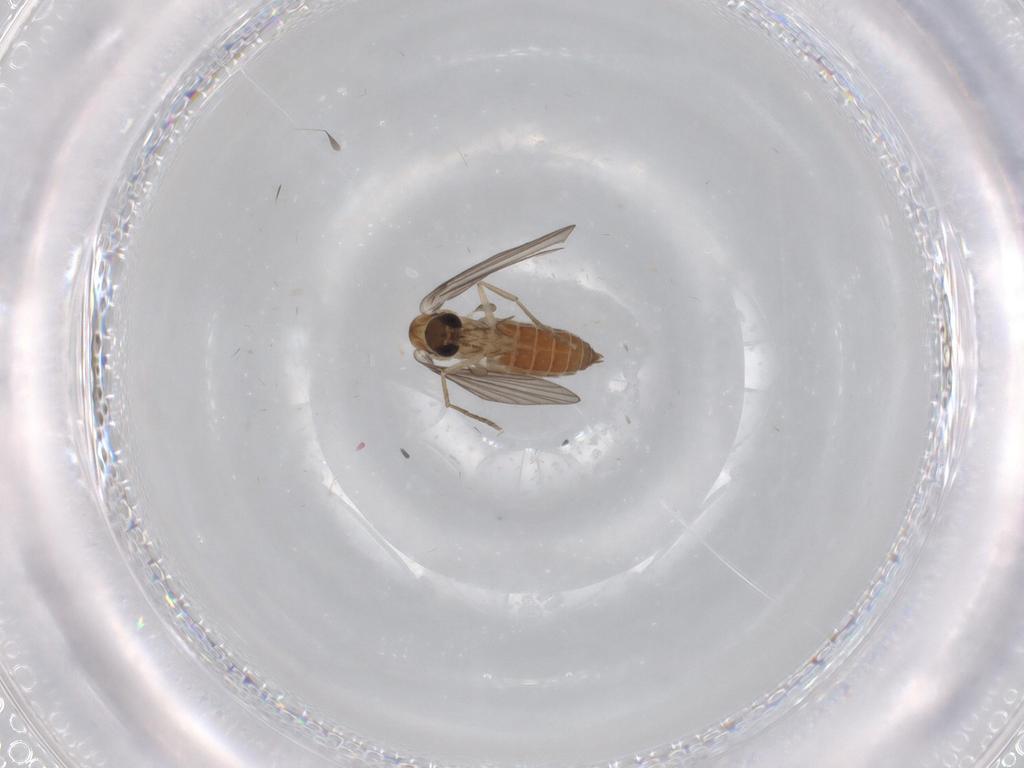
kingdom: Animalia
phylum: Arthropoda
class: Insecta
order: Diptera
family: Limoniidae
